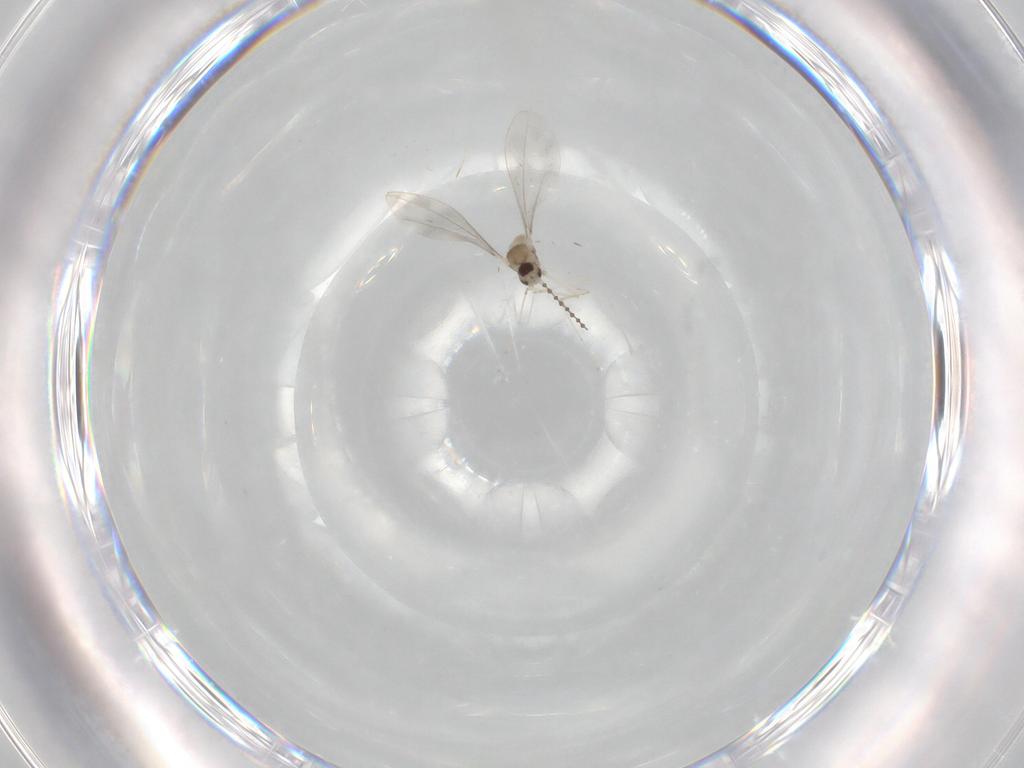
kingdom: Animalia
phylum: Arthropoda
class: Insecta
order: Diptera
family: Cecidomyiidae
